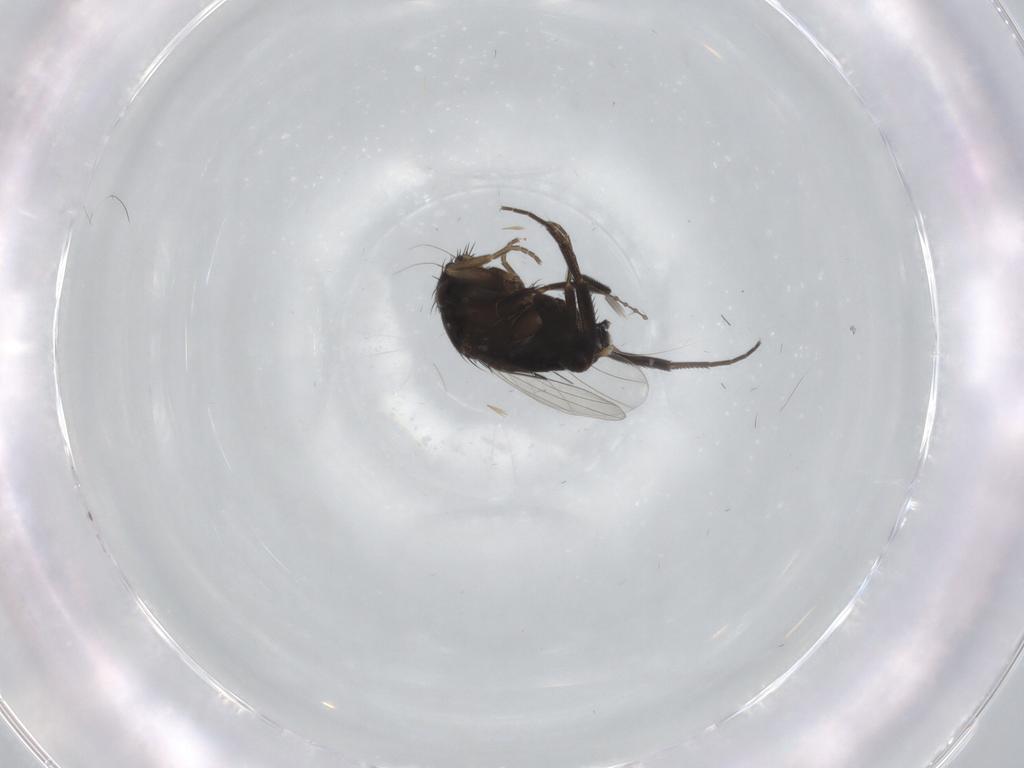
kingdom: Animalia
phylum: Arthropoda
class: Insecta
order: Diptera
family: Phoridae
